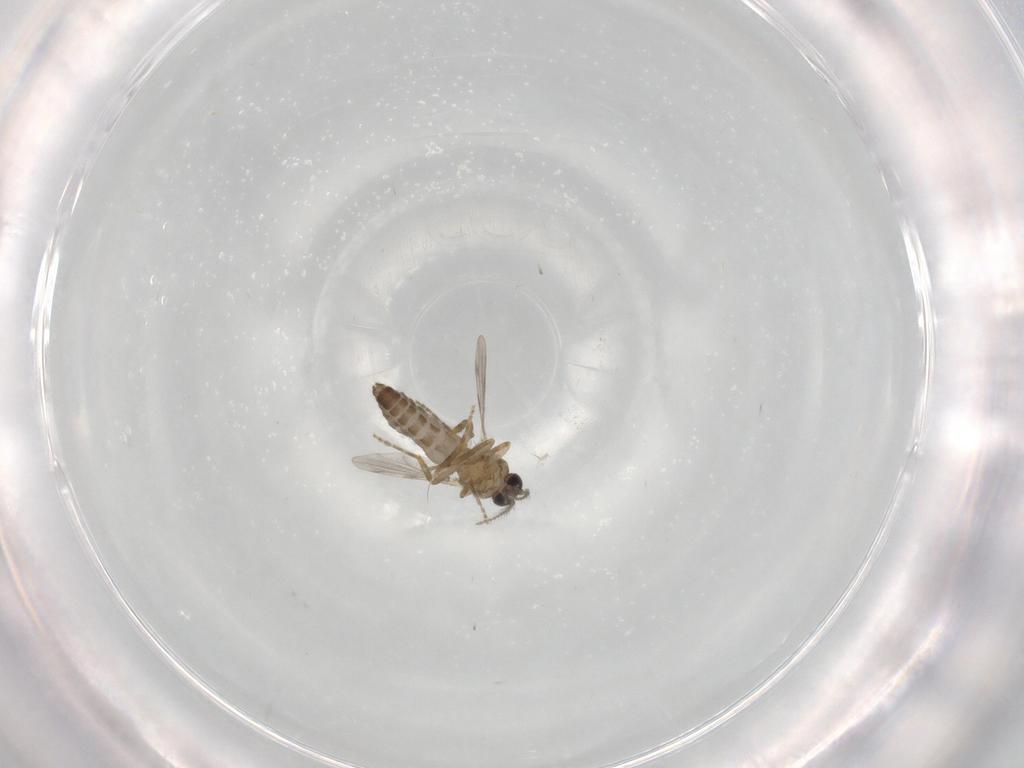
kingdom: Animalia
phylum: Arthropoda
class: Insecta
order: Diptera
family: Ceratopogonidae
